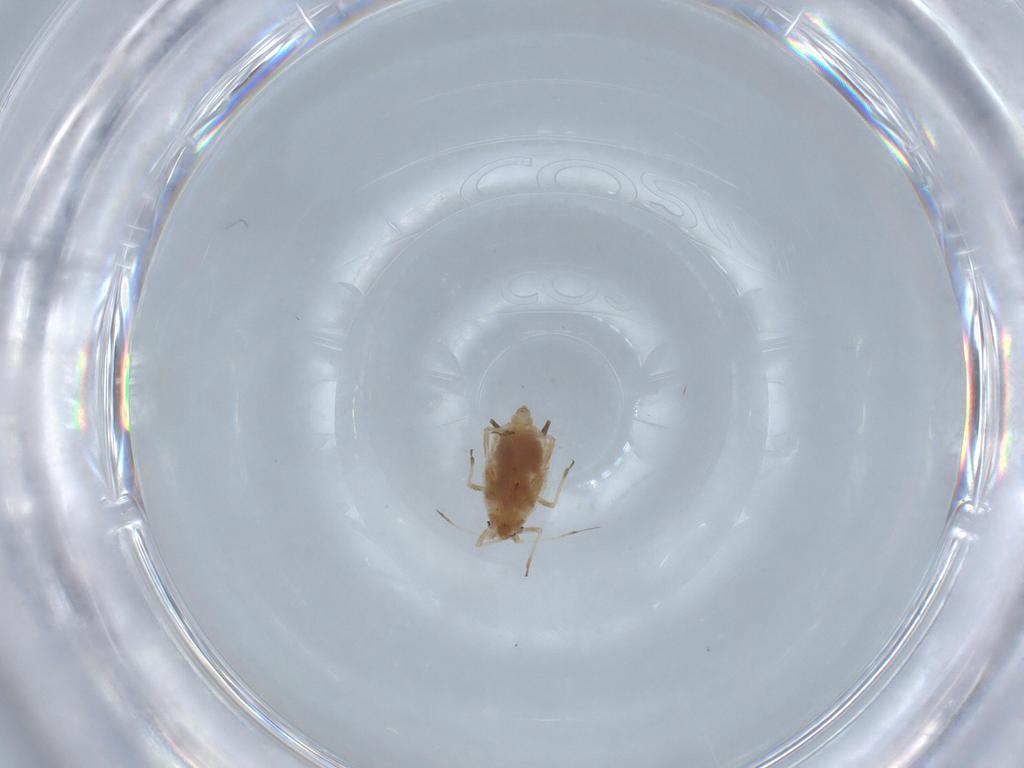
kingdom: Animalia
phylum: Arthropoda
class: Insecta
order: Hemiptera
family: Aphididae
